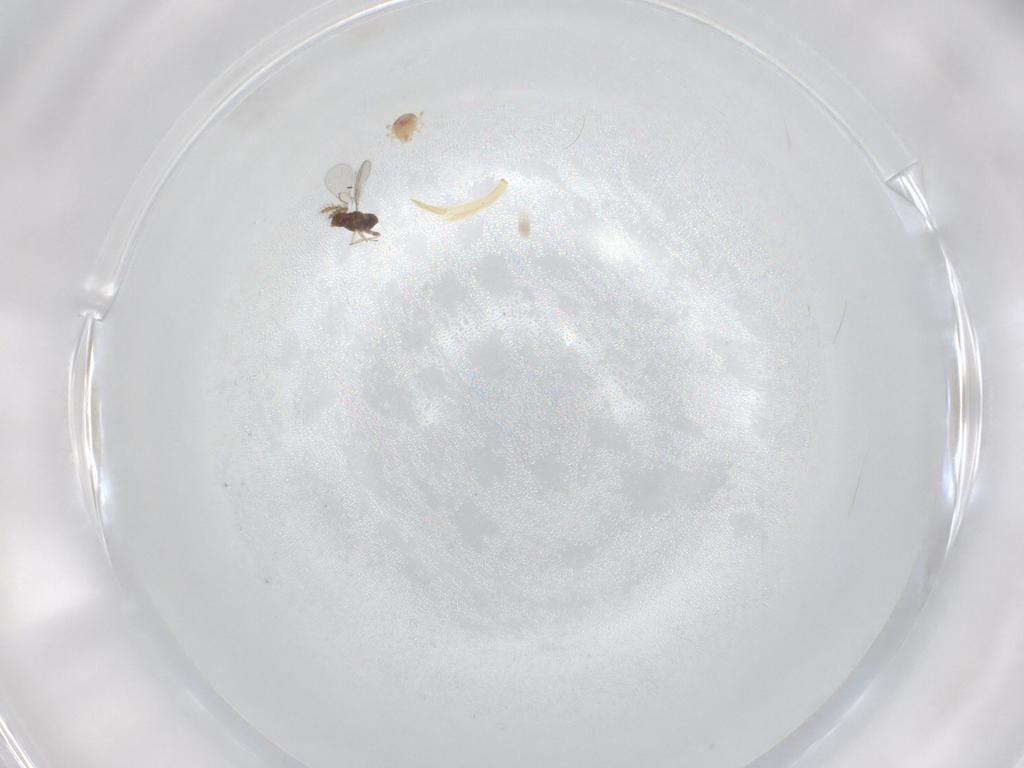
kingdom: Animalia
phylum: Arthropoda
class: Insecta
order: Lepidoptera
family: Geometridae
